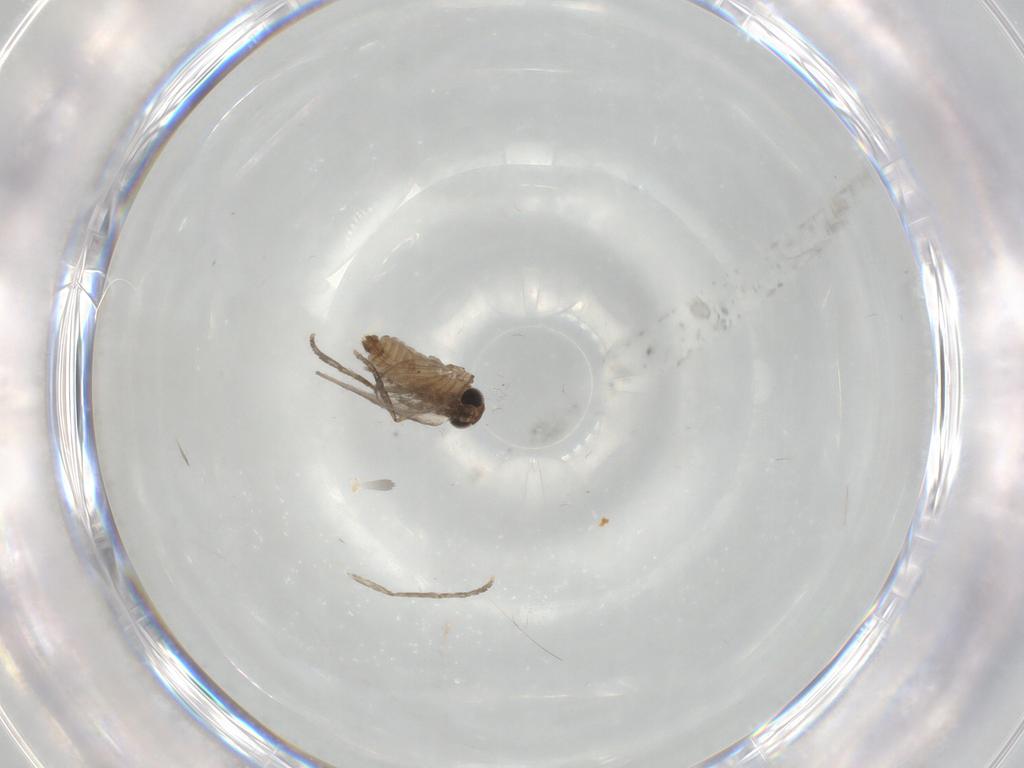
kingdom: Animalia
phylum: Arthropoda
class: Insecta
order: Diptera
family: Psychodidae
